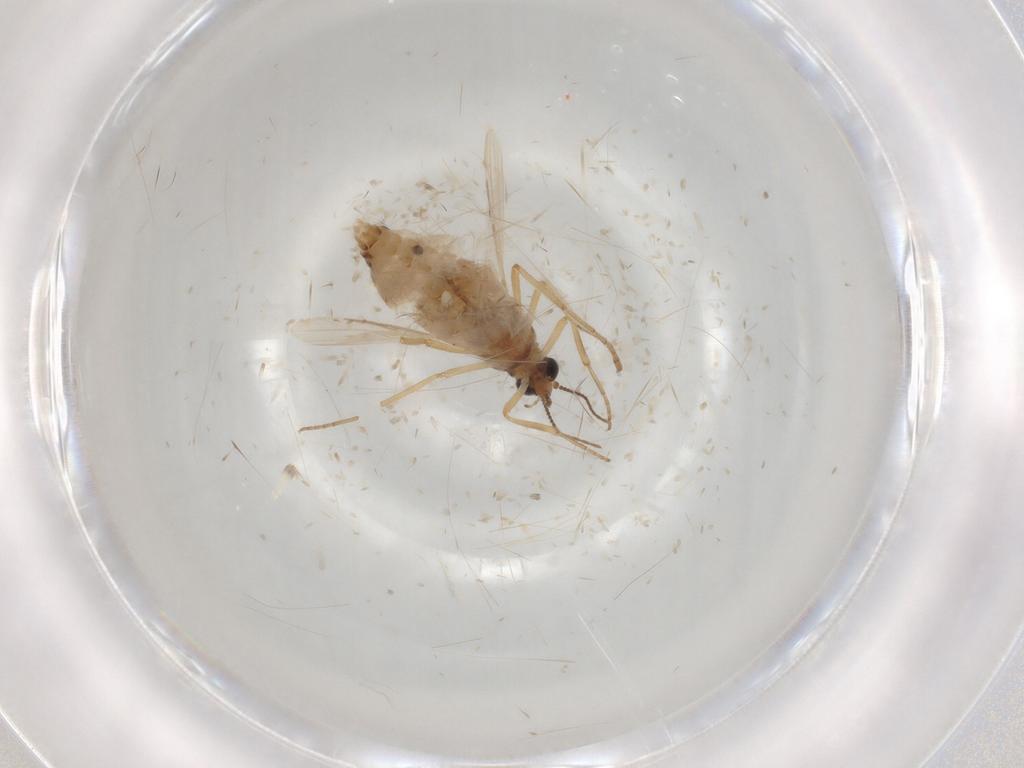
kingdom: Animalia
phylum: Arthropoda
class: Insecta
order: Diptera
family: Ceratopogonidae
